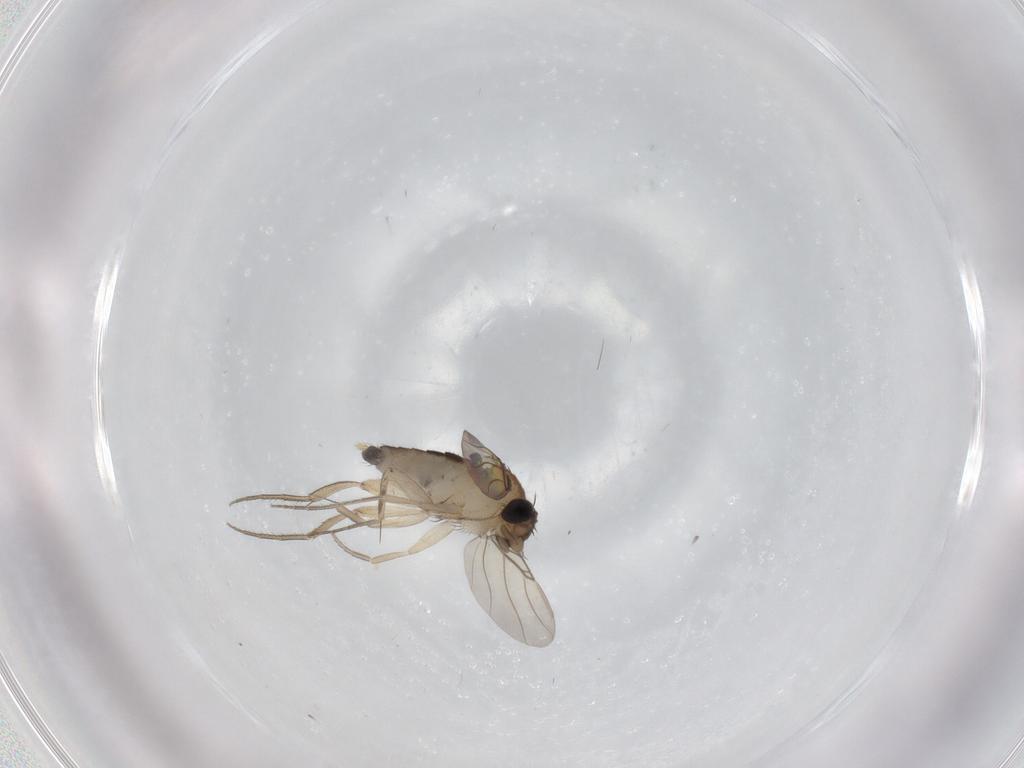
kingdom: Animalia
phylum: Arthropoda
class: Insecta
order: Diptera
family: Phoridae
